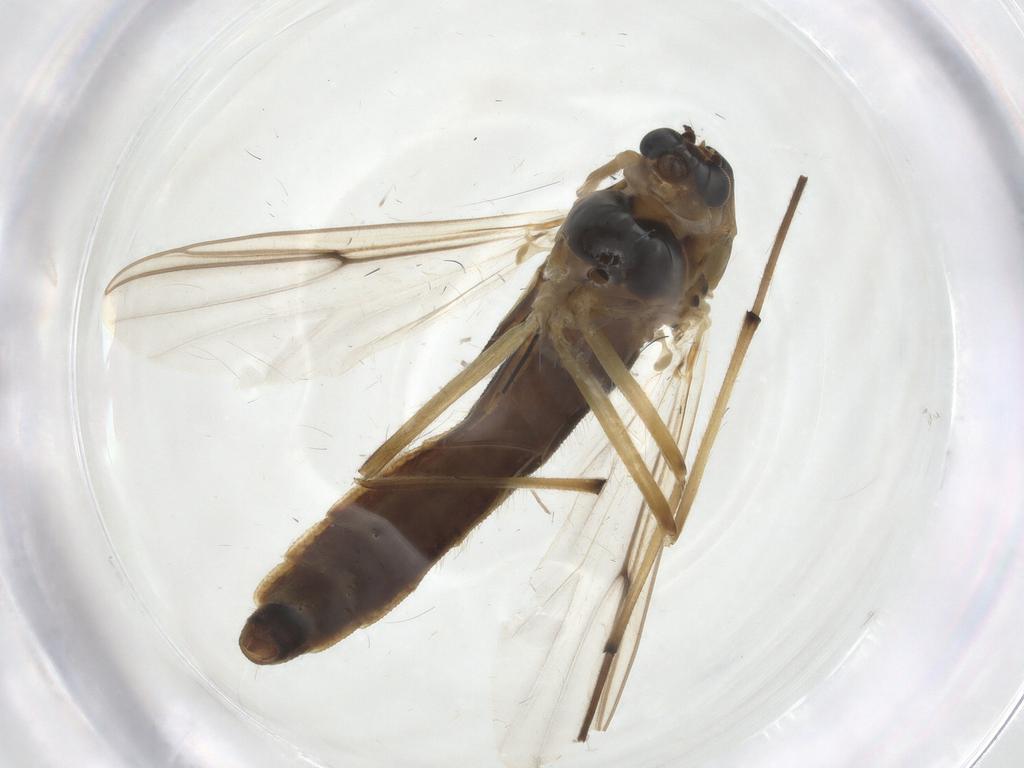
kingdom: Animalia
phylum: Arthropoda
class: Insecta
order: Diptera
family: Chironomidae
